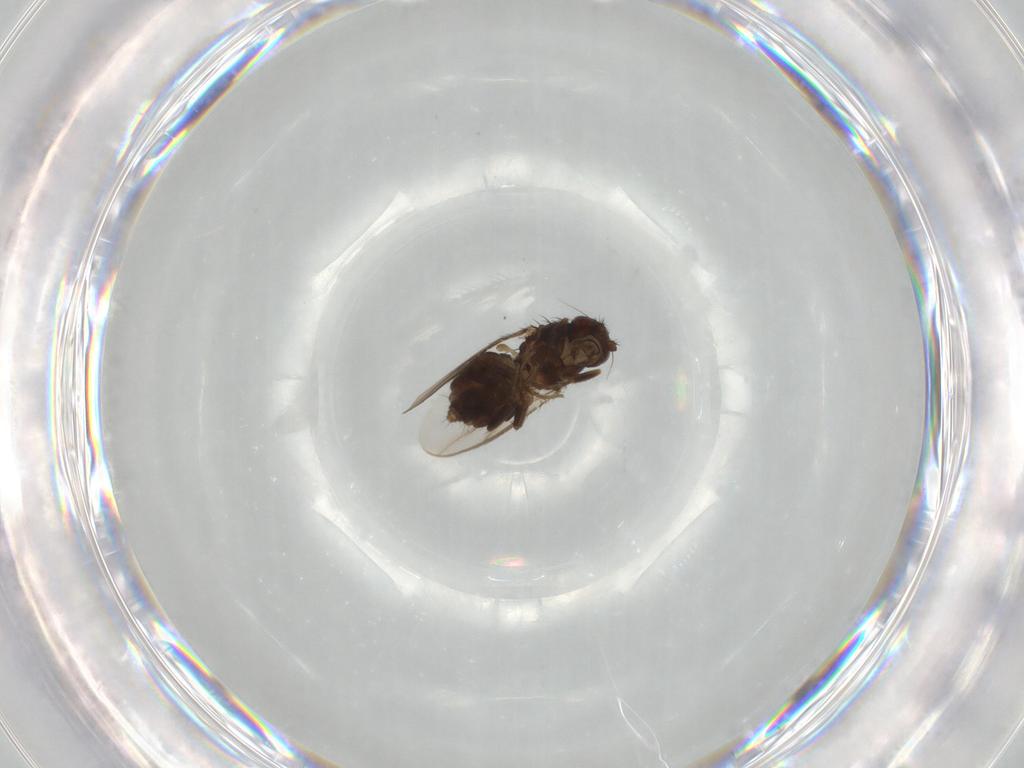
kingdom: Animalia
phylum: Arthropoda
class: Insecta
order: Diptera
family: Sphaeroceridae
